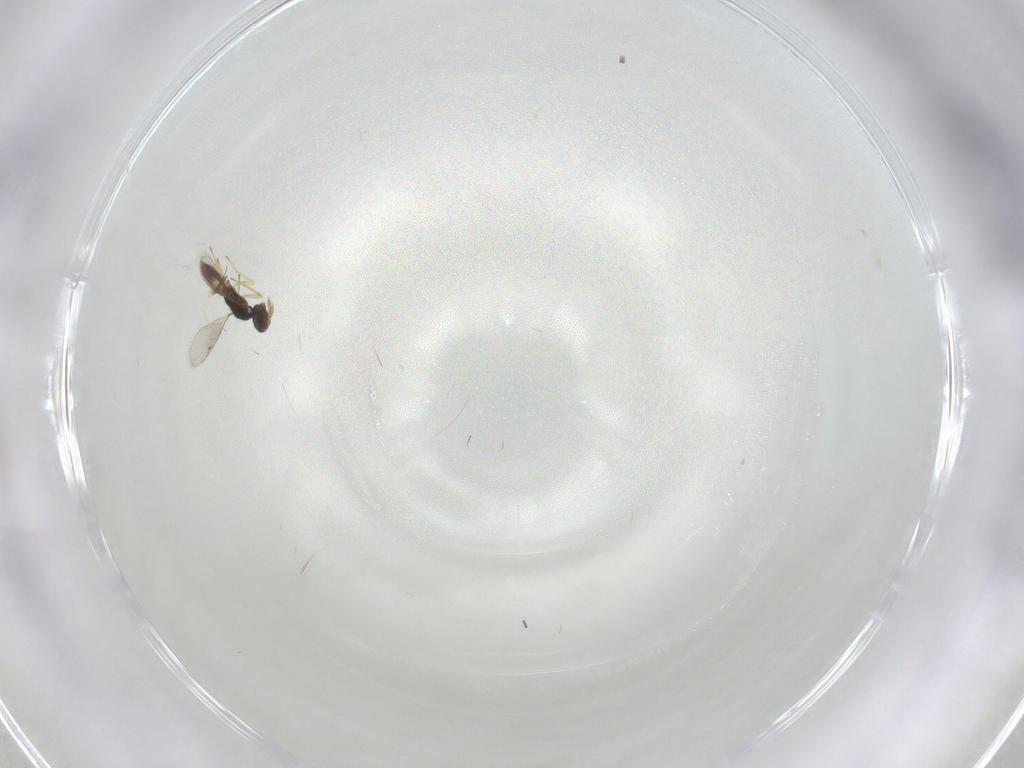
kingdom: Animalia
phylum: Arthropoda
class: Insecta
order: Hymenoptera
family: Eulophidae
